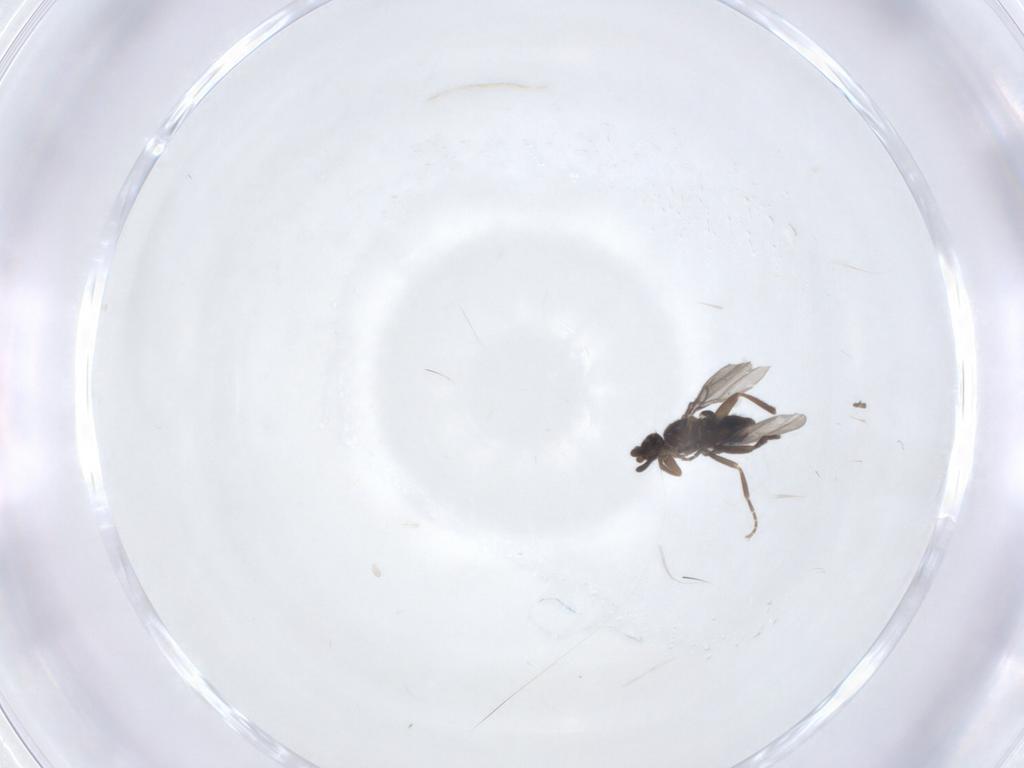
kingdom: Animalia
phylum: Arthropoda
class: Insecta
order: Diptera
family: Cecidomyiidae
